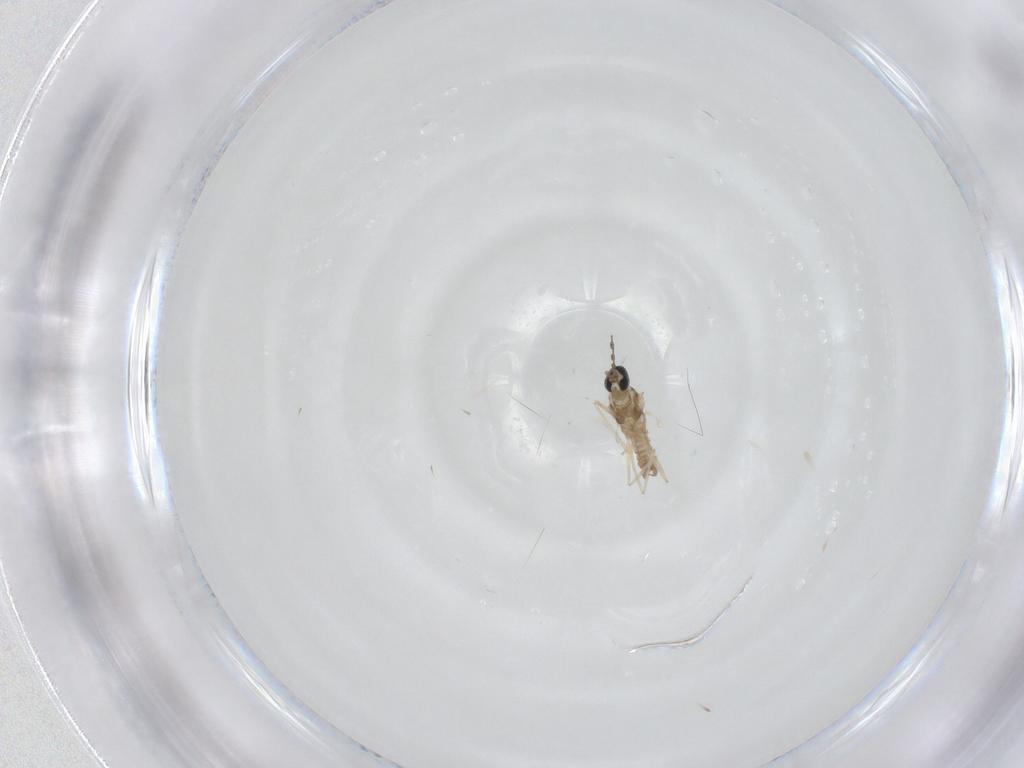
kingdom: Animalia
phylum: Arthropoda
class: Insecta
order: Diptera
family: Cecidomyiidae
